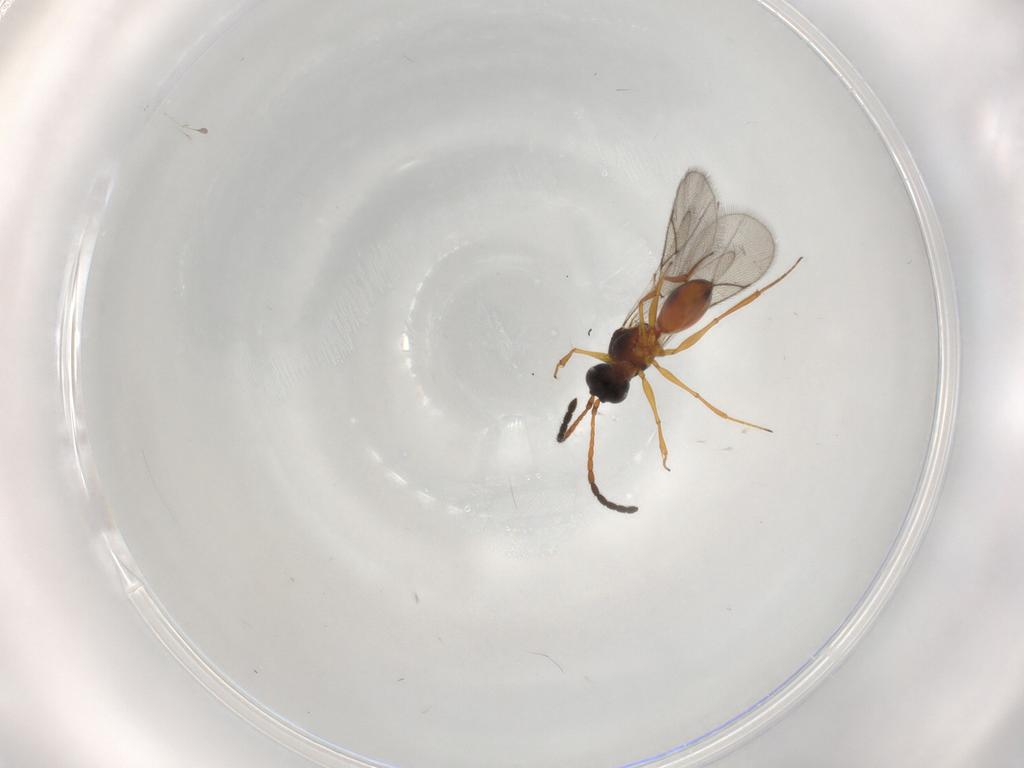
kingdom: Animalia
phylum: Arthropoda
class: Insecta
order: Hymenoptera
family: Figitidae
